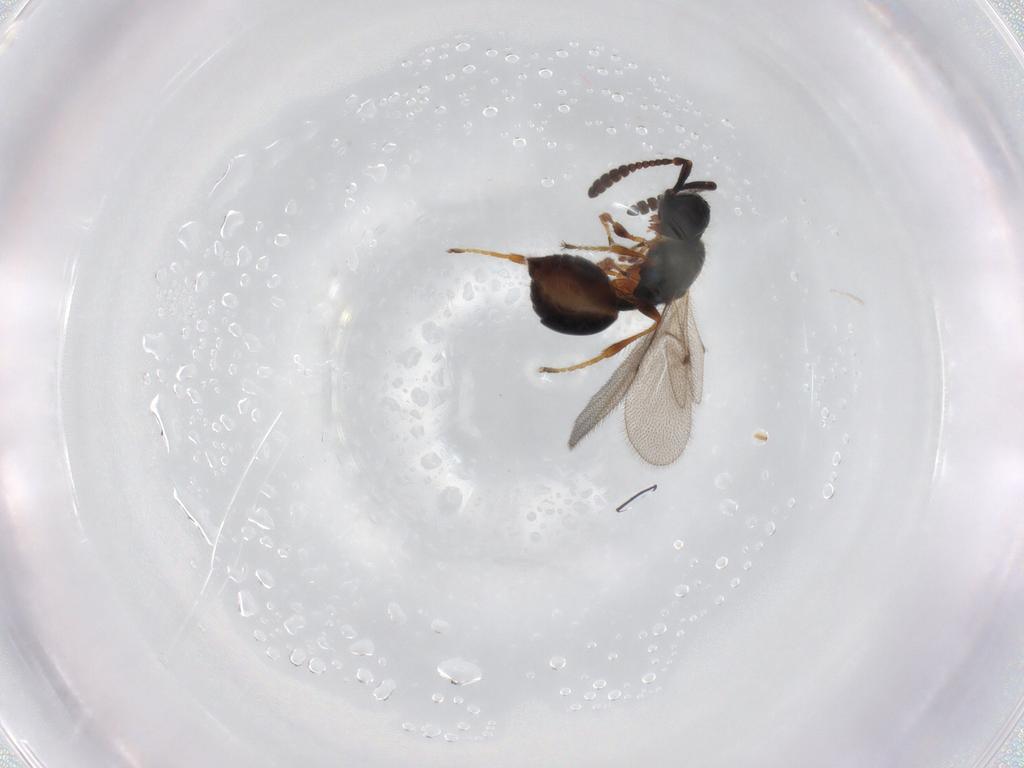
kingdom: Animalia
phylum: Arthropoda
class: Insecta
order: Hymenoptera
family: Diapriidae
